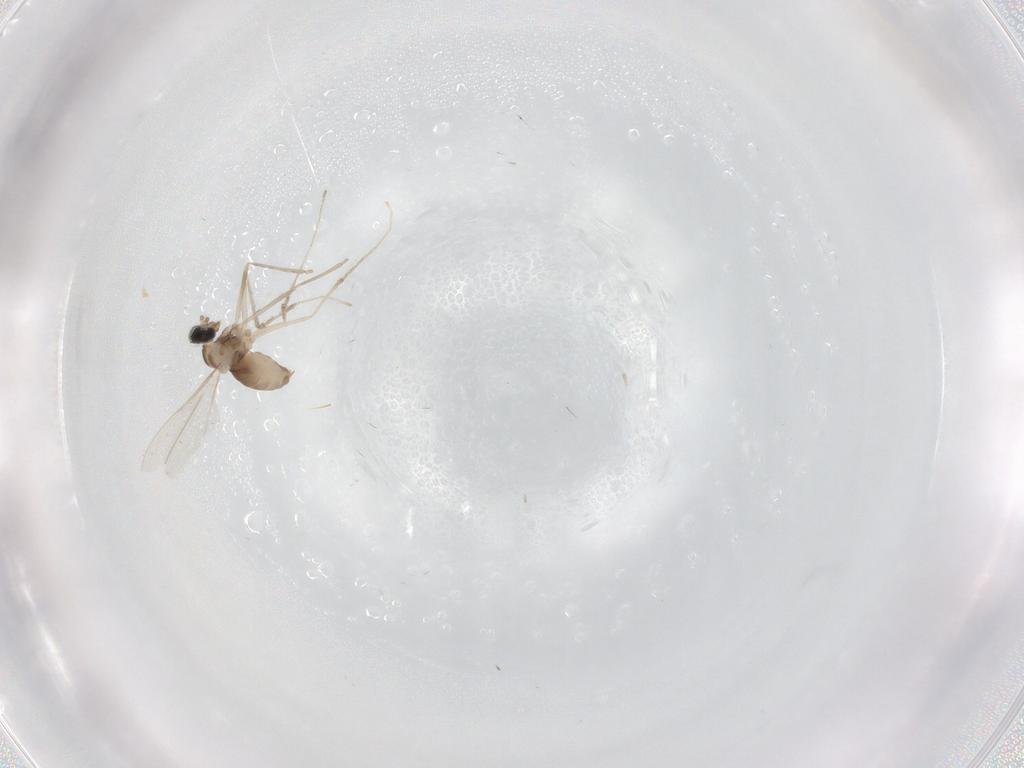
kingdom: Animalia
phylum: Arthropoda
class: Insecta
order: Diptera
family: Cecidomyiidae
